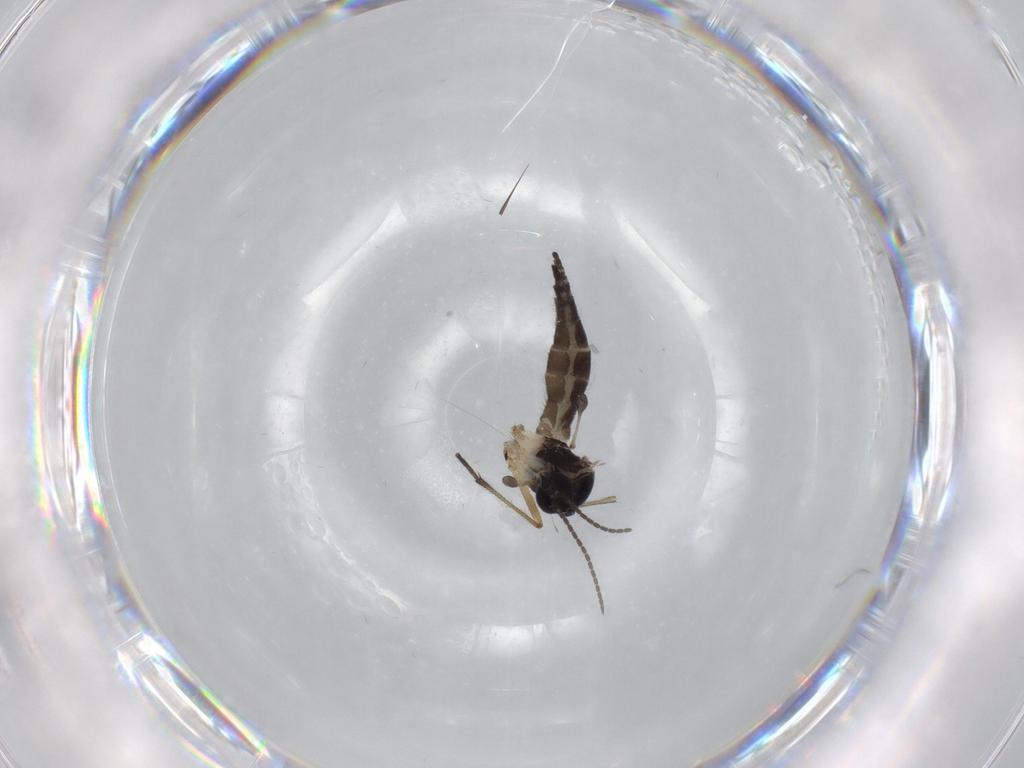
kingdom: Animalia
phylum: Arthropoda
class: Insecta
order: Diptera
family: Sciaridae
